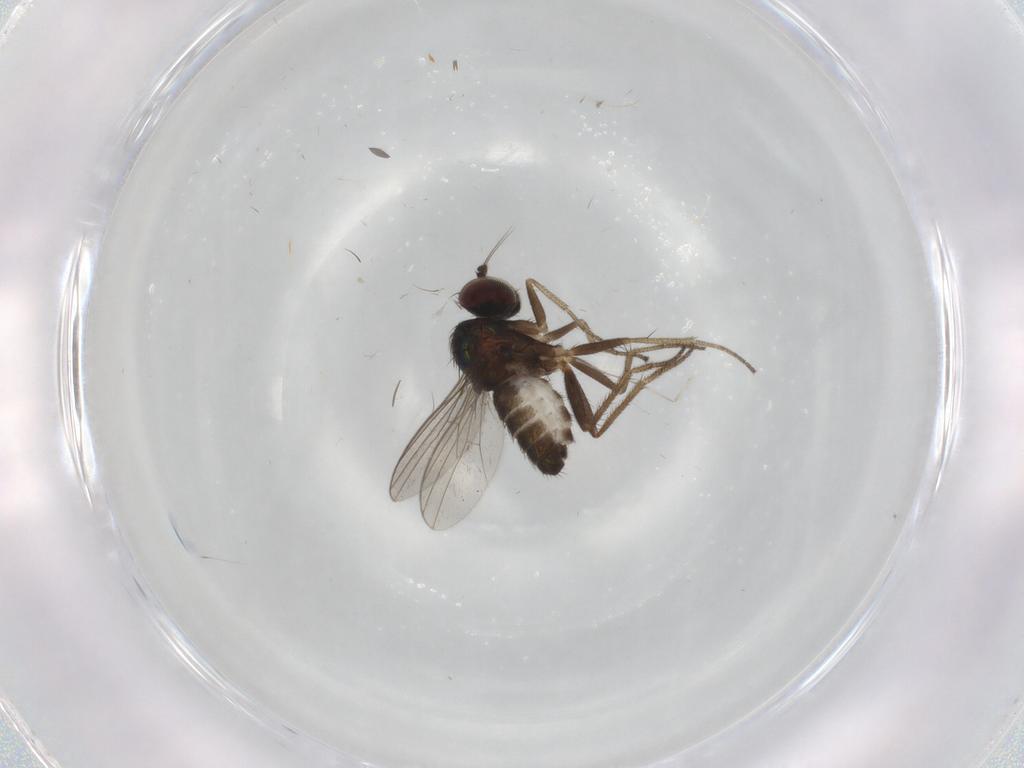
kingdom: Animalia
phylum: Arthropoda
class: Insecta
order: Diptera
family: Dolichopodidae
